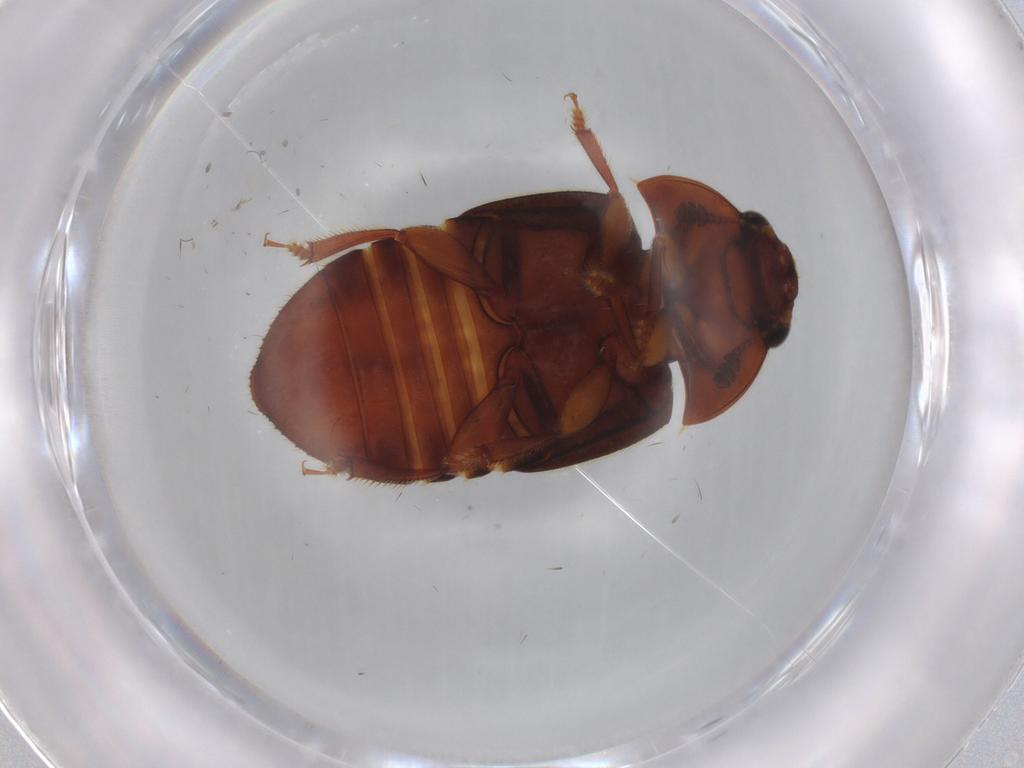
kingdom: Animalia
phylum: Arthropoda
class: Insecta
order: Coleoptera
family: Nitidulidae
